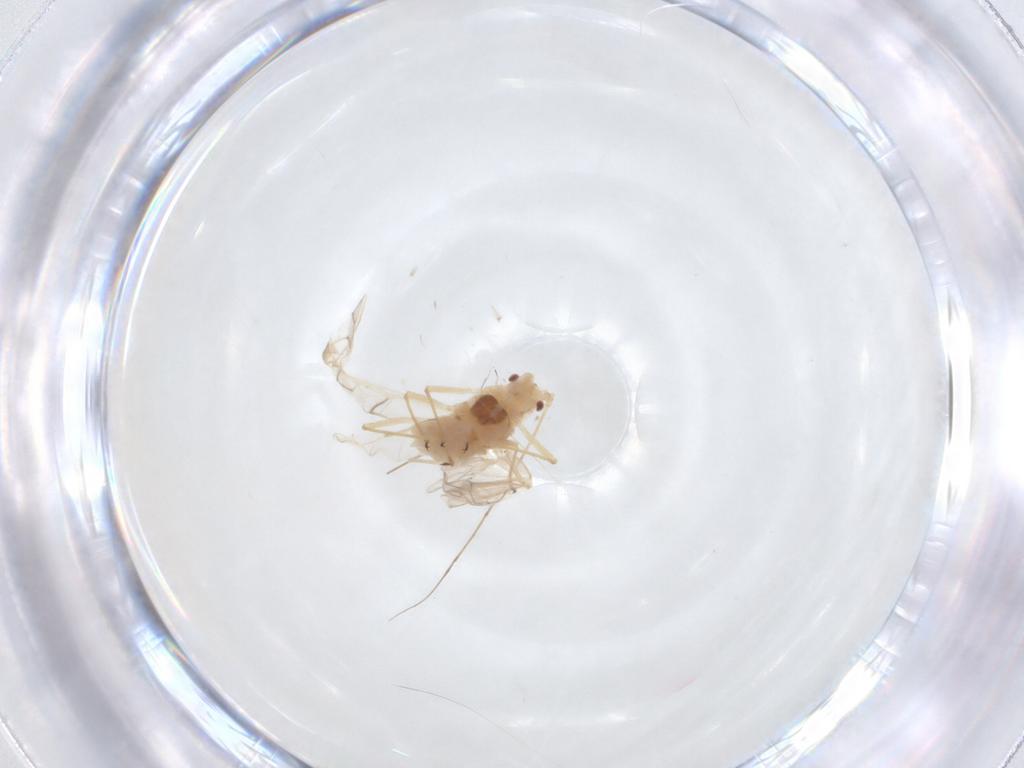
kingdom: Animalia
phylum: Arthropoda
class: Insecta
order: Hemiptera
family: Aphididae
